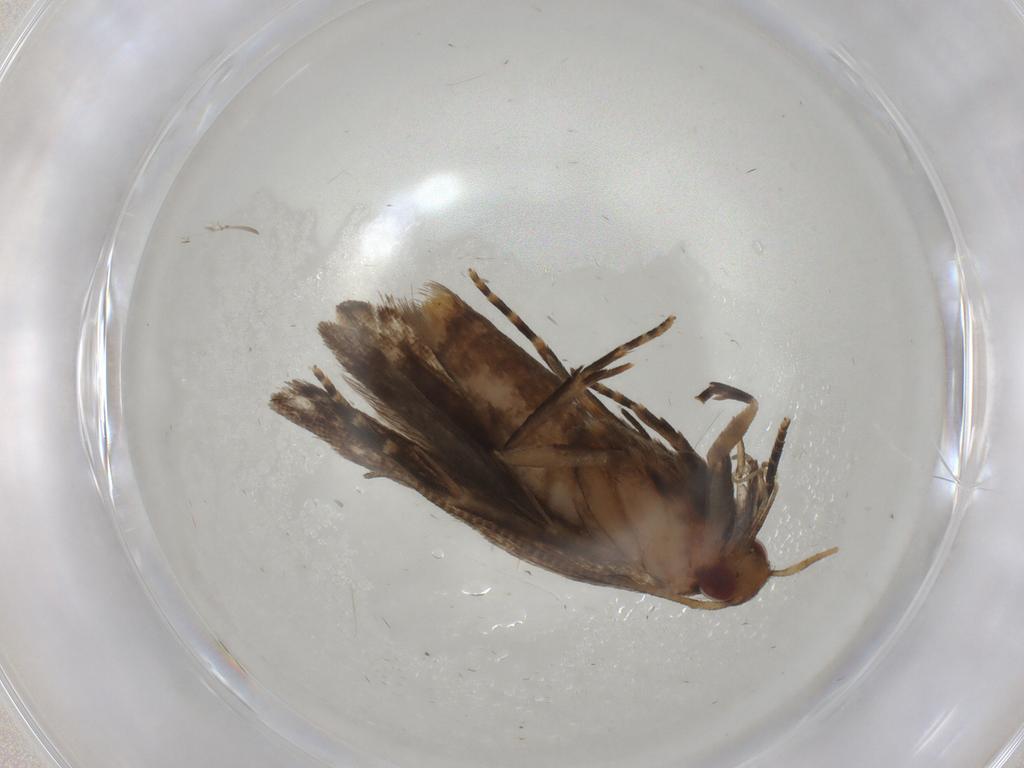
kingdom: Animalia
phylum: Arthropoda
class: Insecta
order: Lepidoptera
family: Gelechiidae
